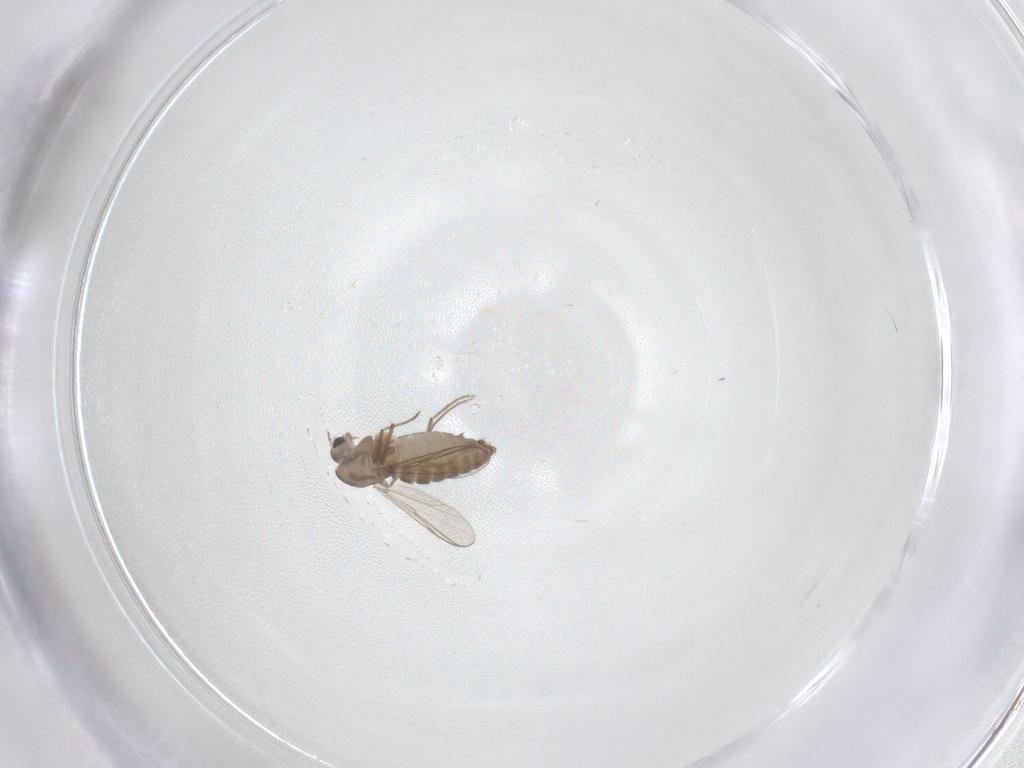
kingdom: Animalia
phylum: Arthropoda
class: Insecta
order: Diptera
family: Chironomidae
